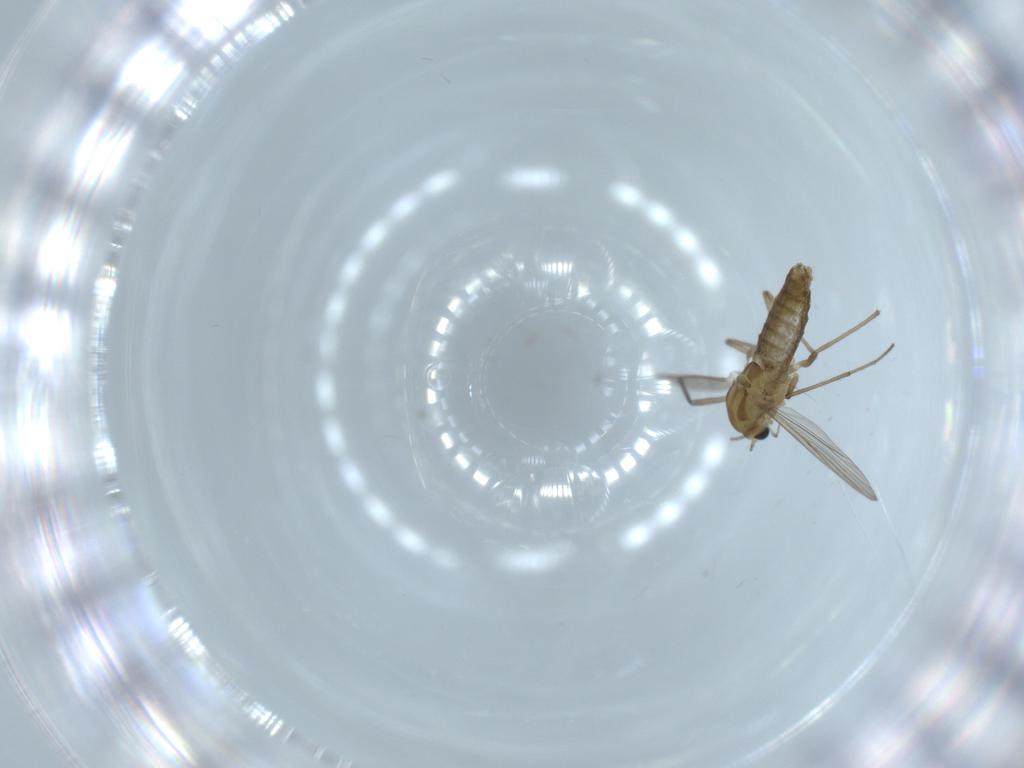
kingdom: Animalia
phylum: Arthropoda
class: Insecta
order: Diptera
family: Chironomidae
